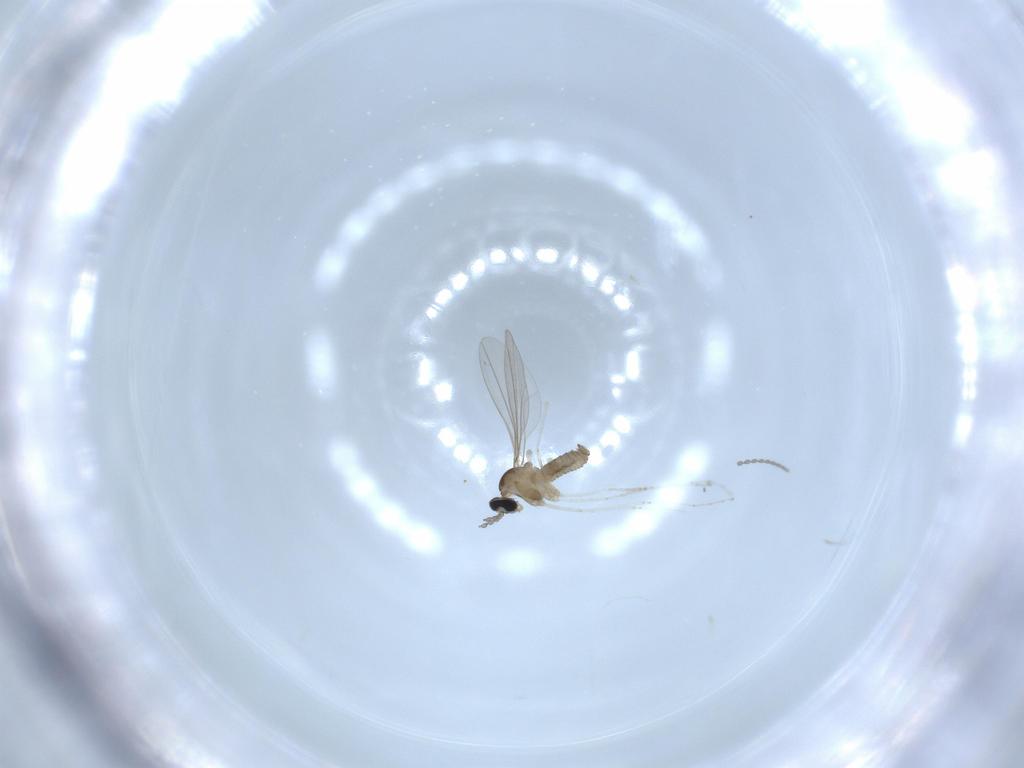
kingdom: Animalia
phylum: Arthropoda
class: Insecta
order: Diptera
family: Cecidomyiidae
